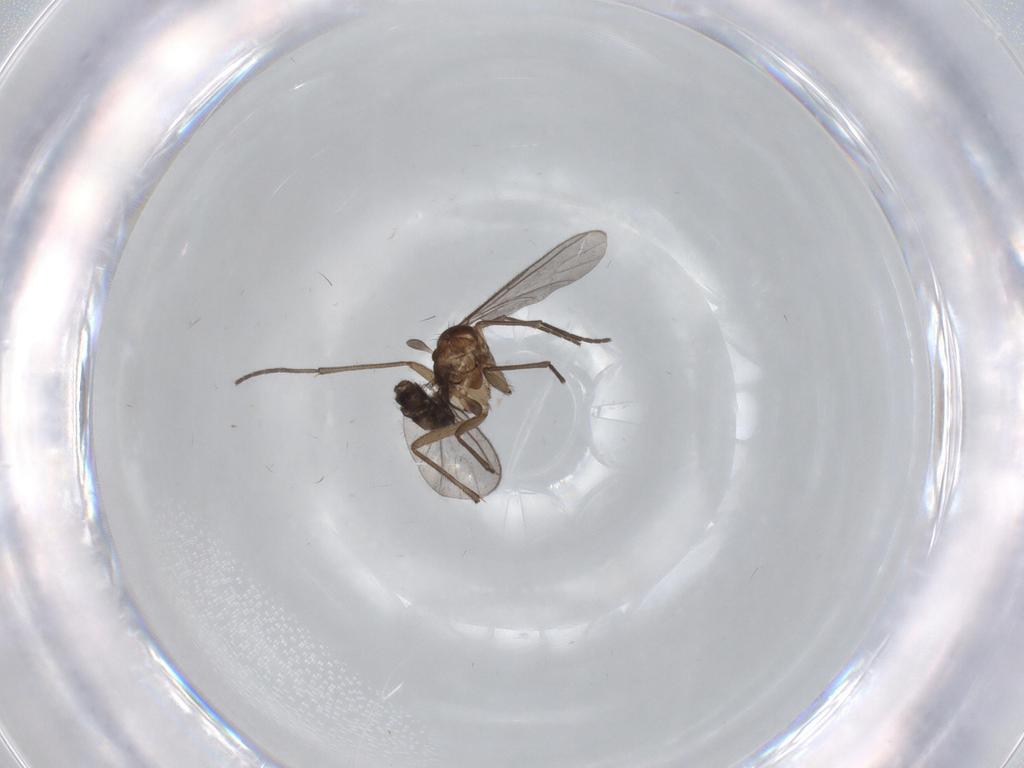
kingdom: Animalia
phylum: Arthropoda
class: Insecta
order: Diptera
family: Sciaridae
